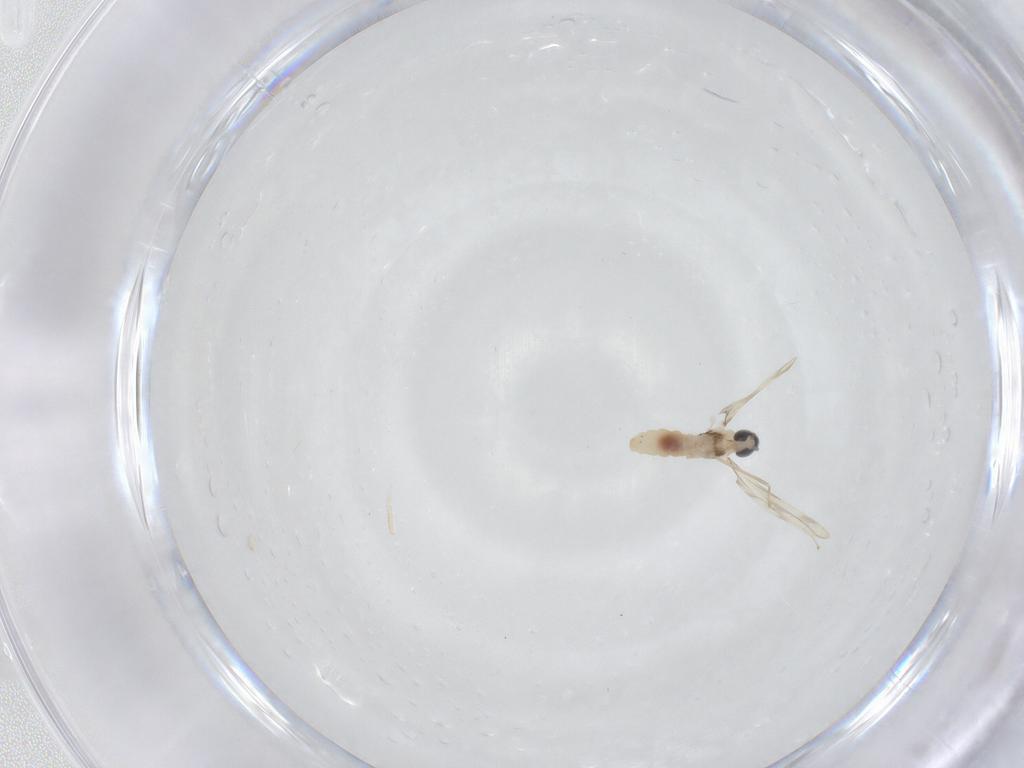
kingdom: Animalia
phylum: Arthropoda
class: Insecta
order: Diptera
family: Cecidomyiidae
